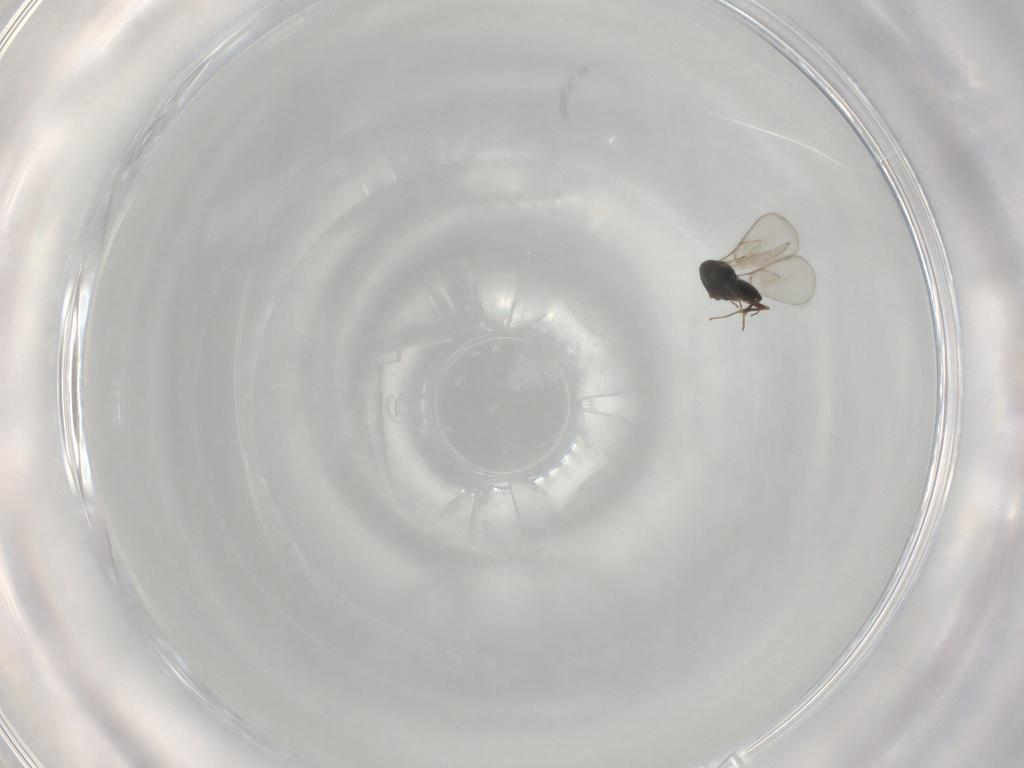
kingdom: Animalia
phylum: Arthropoda
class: Insecta
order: Hymenoptera
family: Scelionidae
